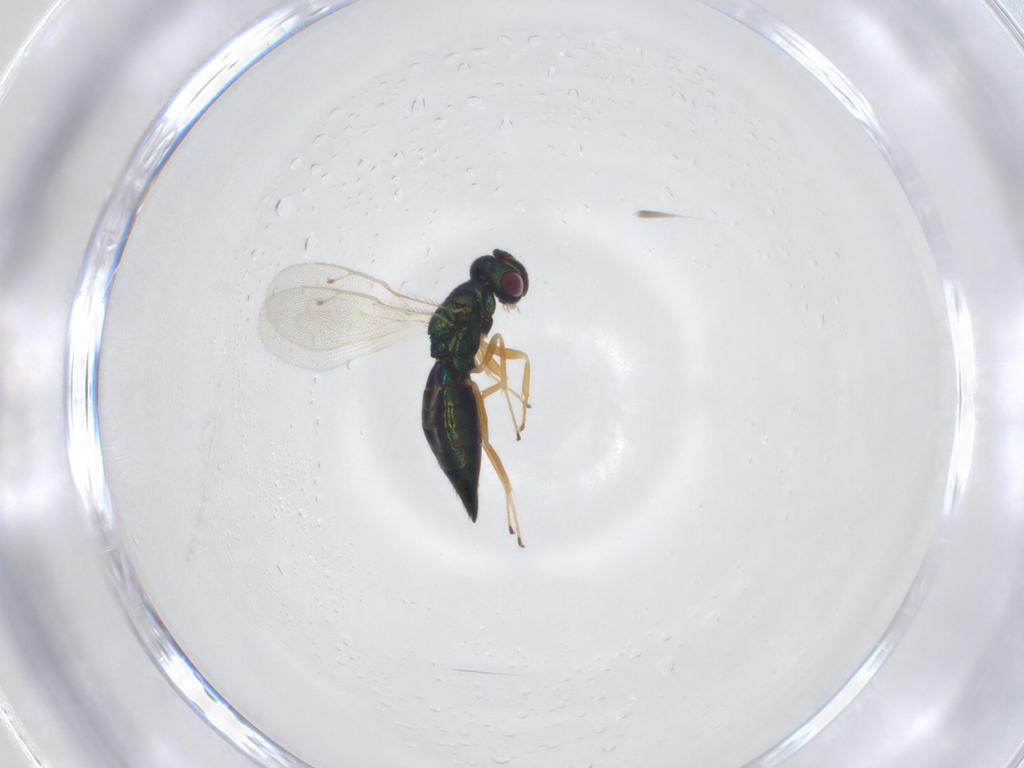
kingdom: Animalia
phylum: Arthropoda
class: Insecta
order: Hymenoptera
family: Pteromalidae
